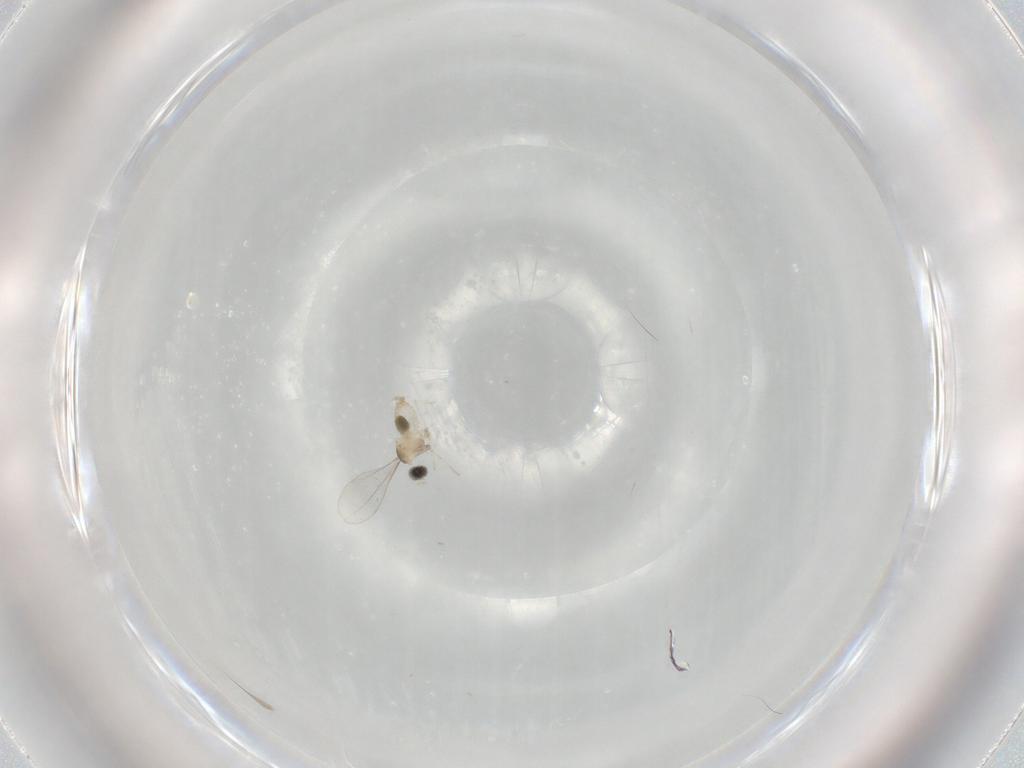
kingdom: Animalia
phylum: Arthropoda
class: Insecta
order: Diptera
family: Cecidomyiidae
